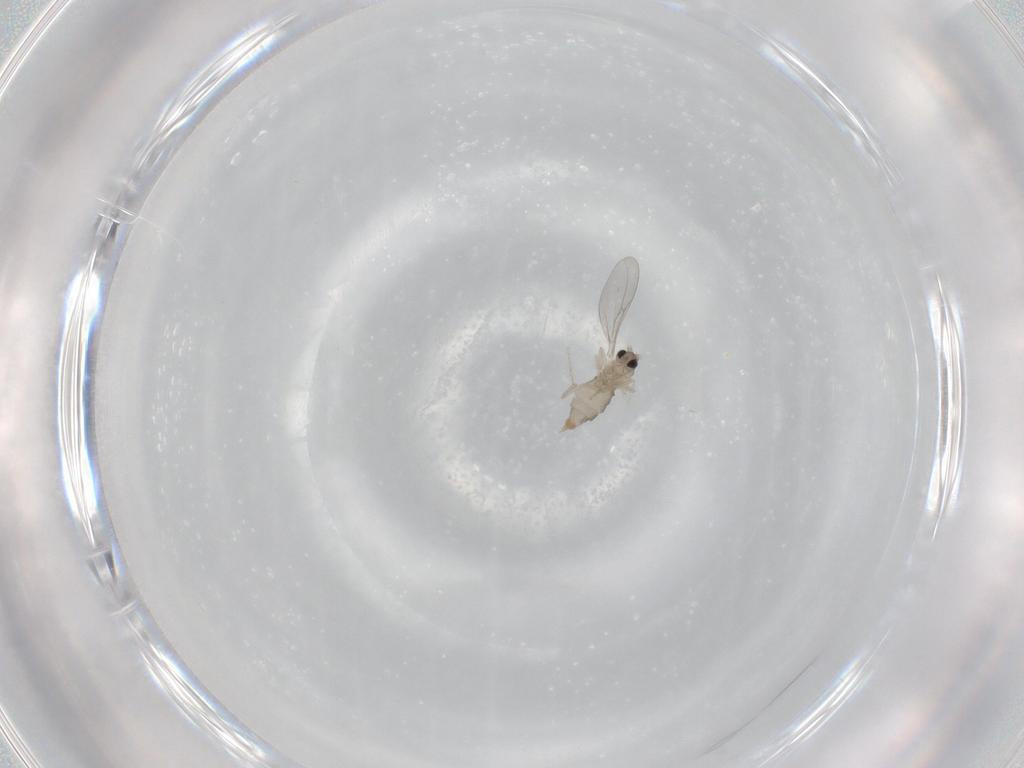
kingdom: Animalia
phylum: Arthropoda
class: Insecta
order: Diptera
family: Cecidomyiidae
